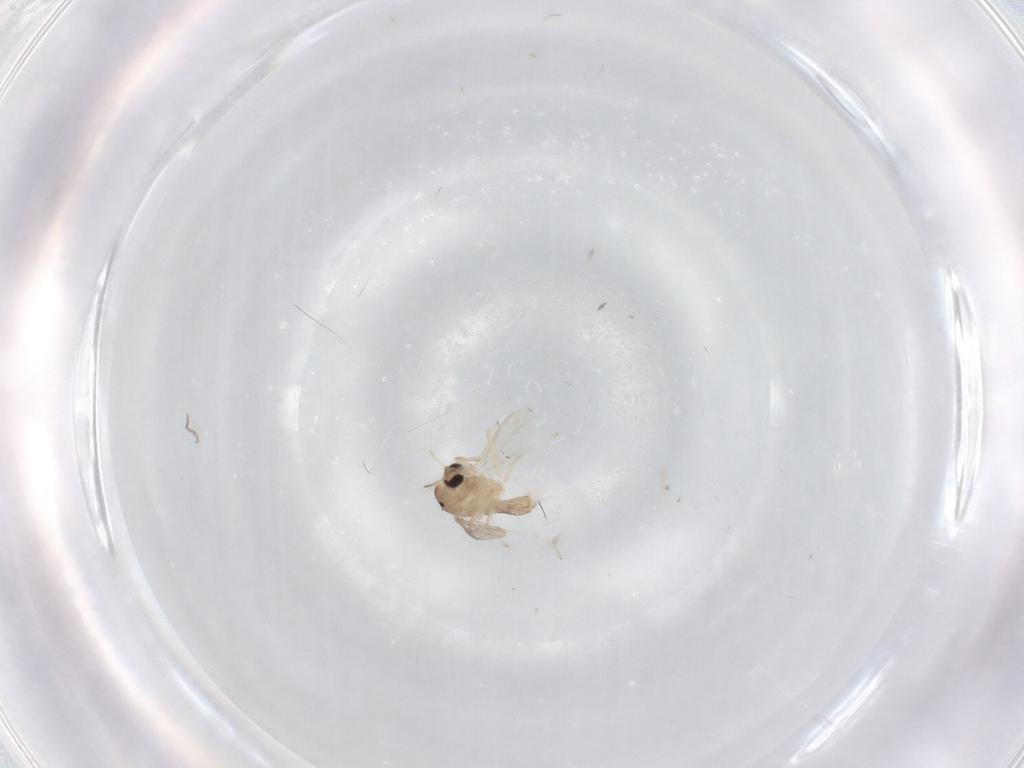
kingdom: Animalia
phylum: Arthropoda
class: Insecta
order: Diptera
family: Chironomidae
